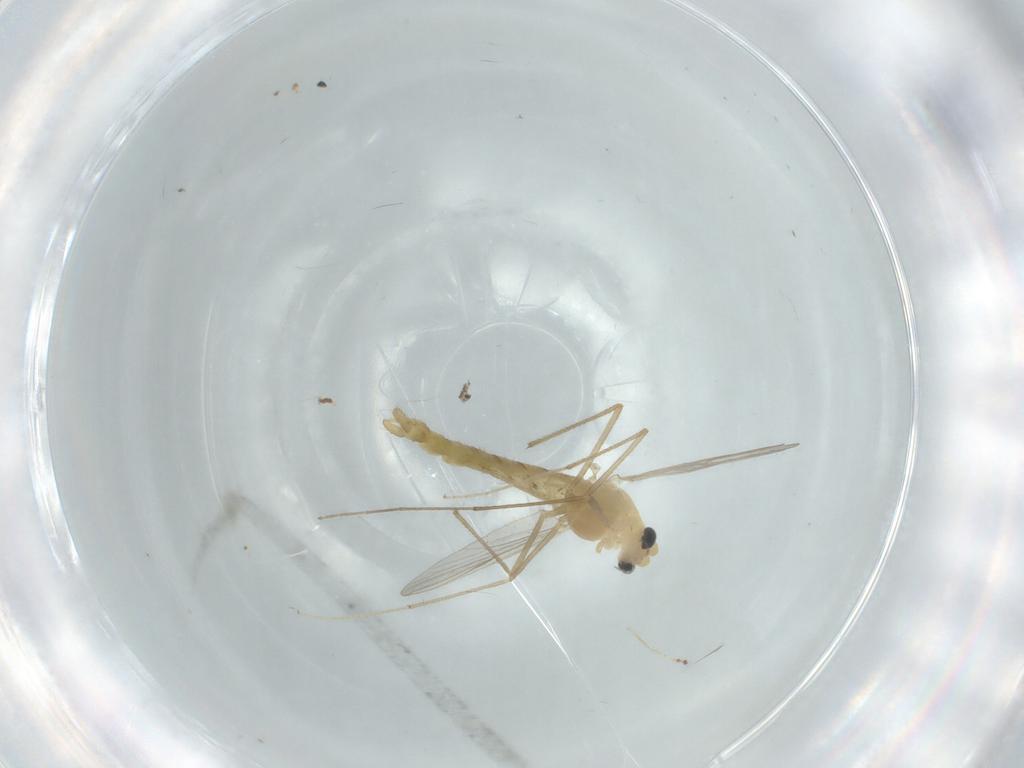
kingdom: Animalia
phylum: Arthropoda
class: Insecta
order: Diptera
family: Chironomidae
